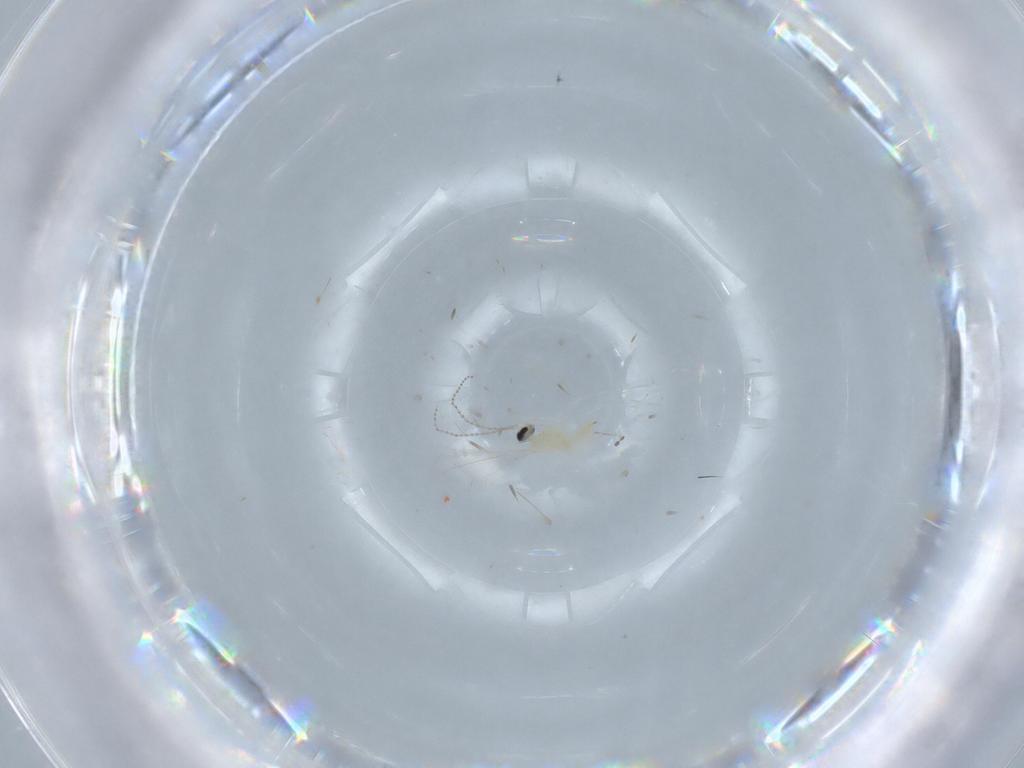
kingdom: Animalia
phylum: Arthropoda
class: Insecta
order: Diptera
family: Cecidomyiidae
